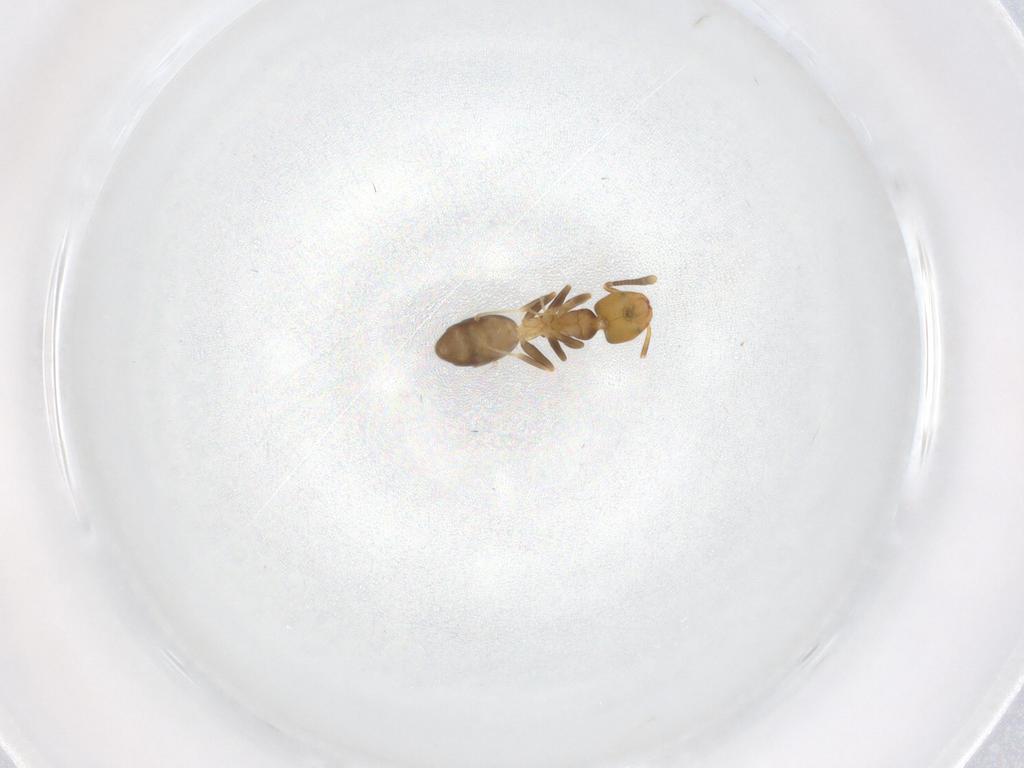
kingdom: Animalia
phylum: Arthropoda
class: Insecta
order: Hymenoptera
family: Formicidae
